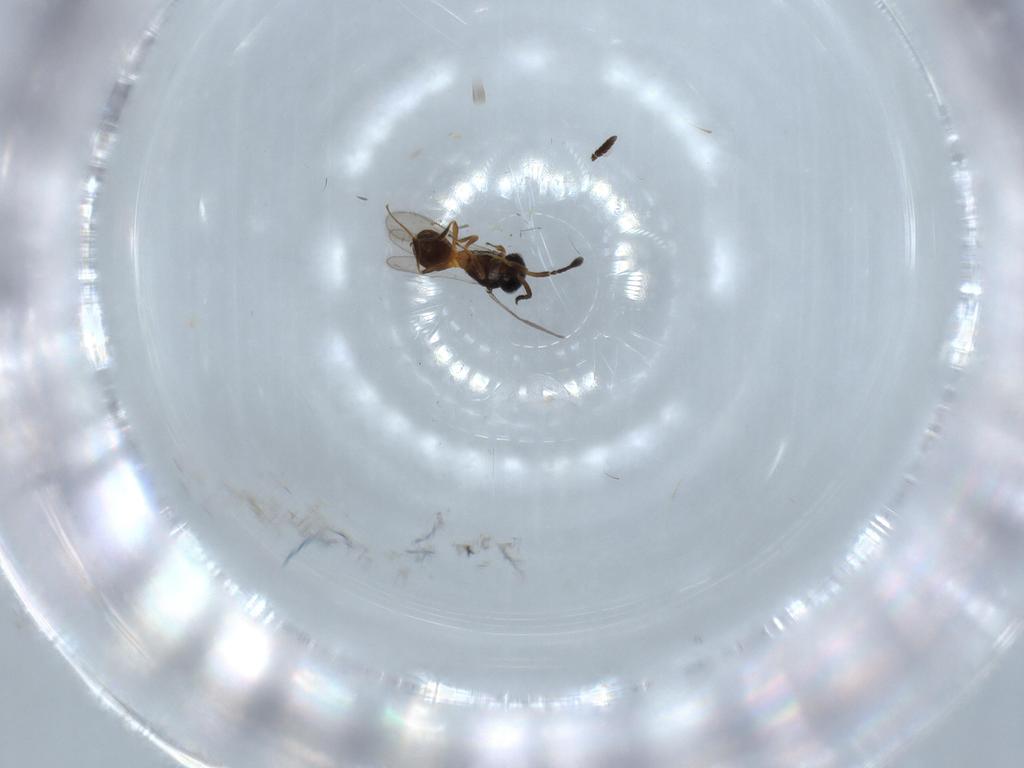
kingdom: Animalia
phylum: Arthropoda
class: Insecta
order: Hymenoptera
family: Scelionidae
